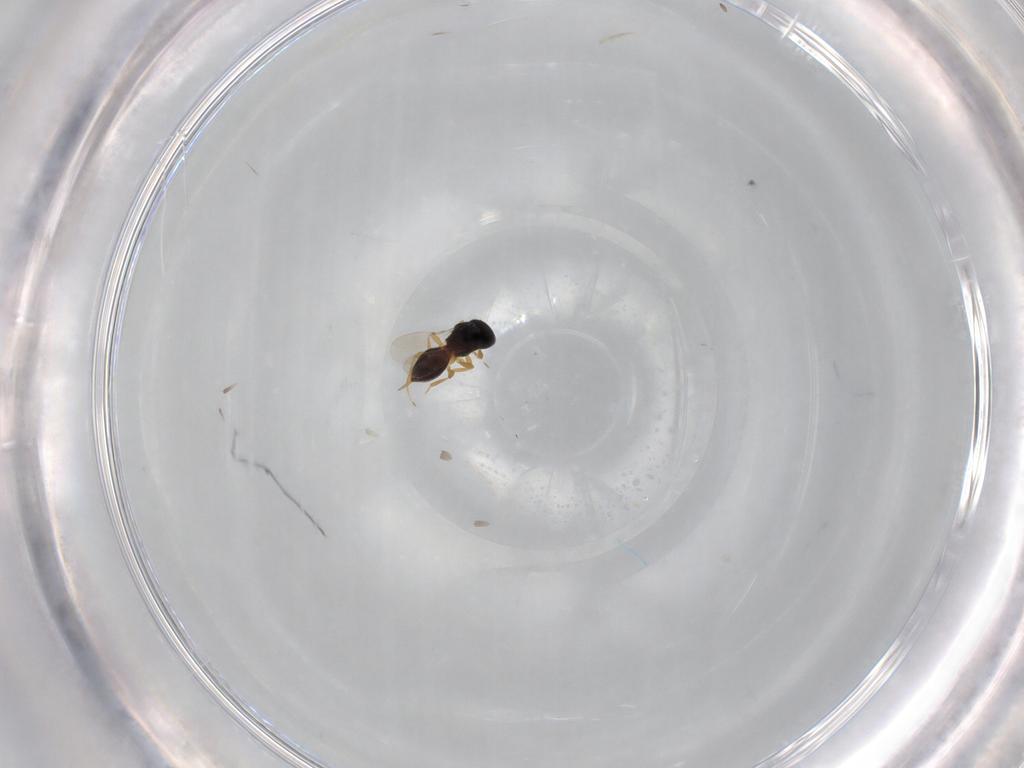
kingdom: Animalia
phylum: Arthropoda
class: Insecta
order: Hymenoptera
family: Platygastridae
